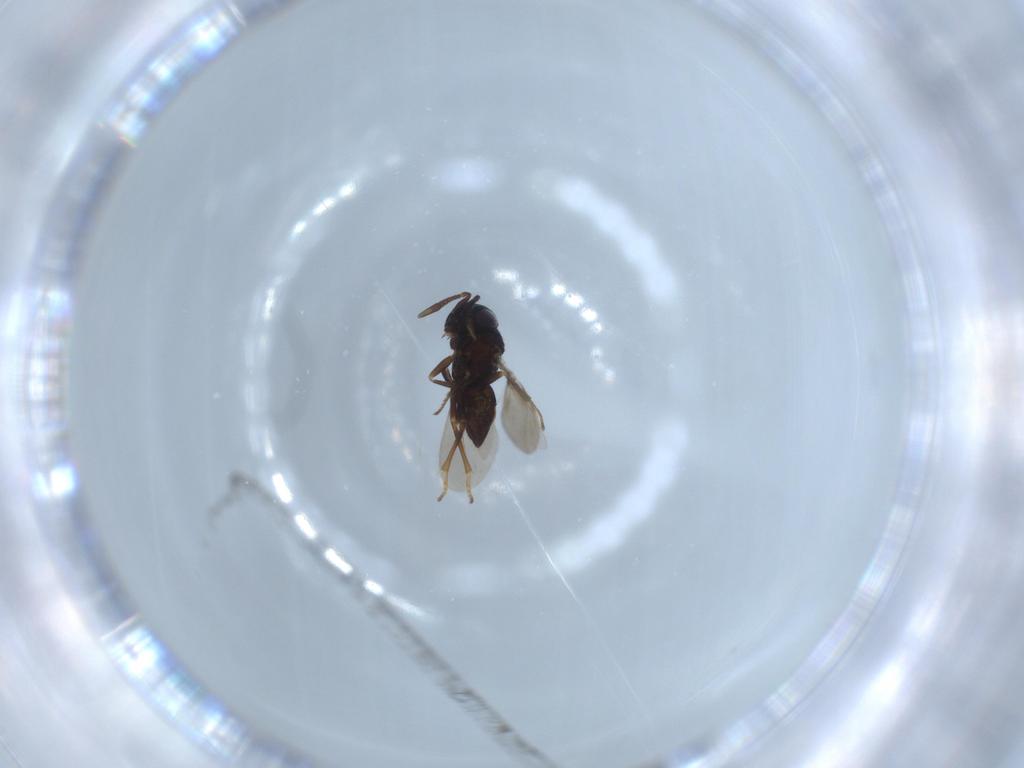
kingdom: Animalia
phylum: Arthropoda
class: Insecta
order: Hymenoptera
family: Encyrtidae
